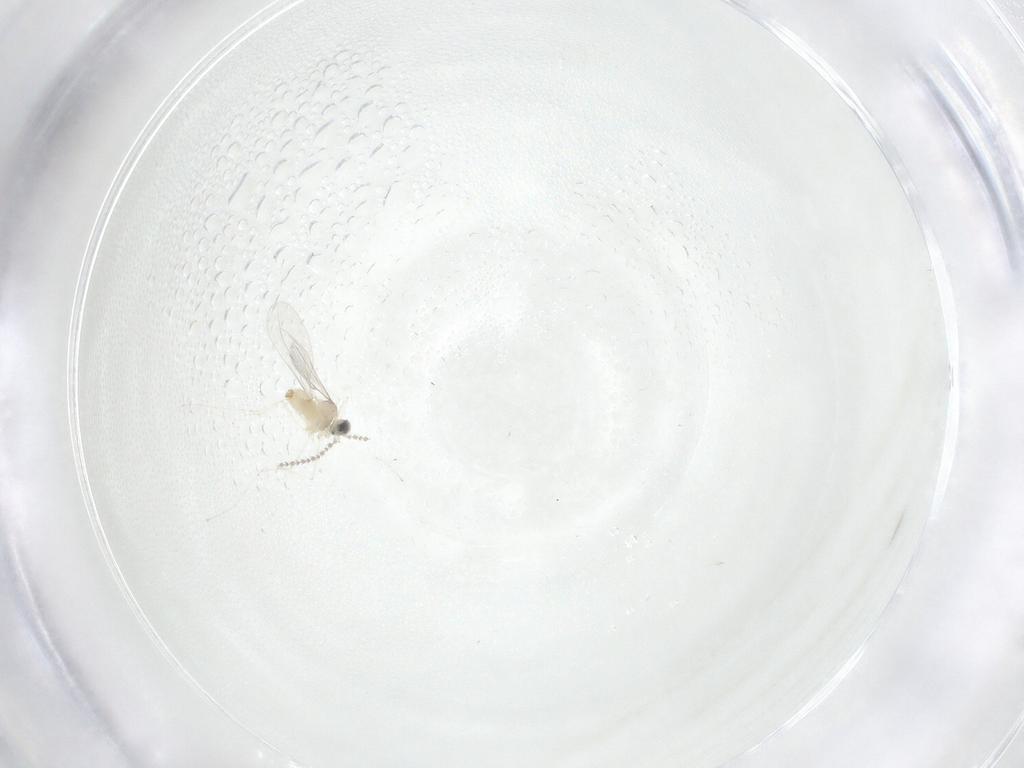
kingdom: Animalia
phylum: Arthropoda
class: Insecta
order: Diptera
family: Cecidomyiidae
